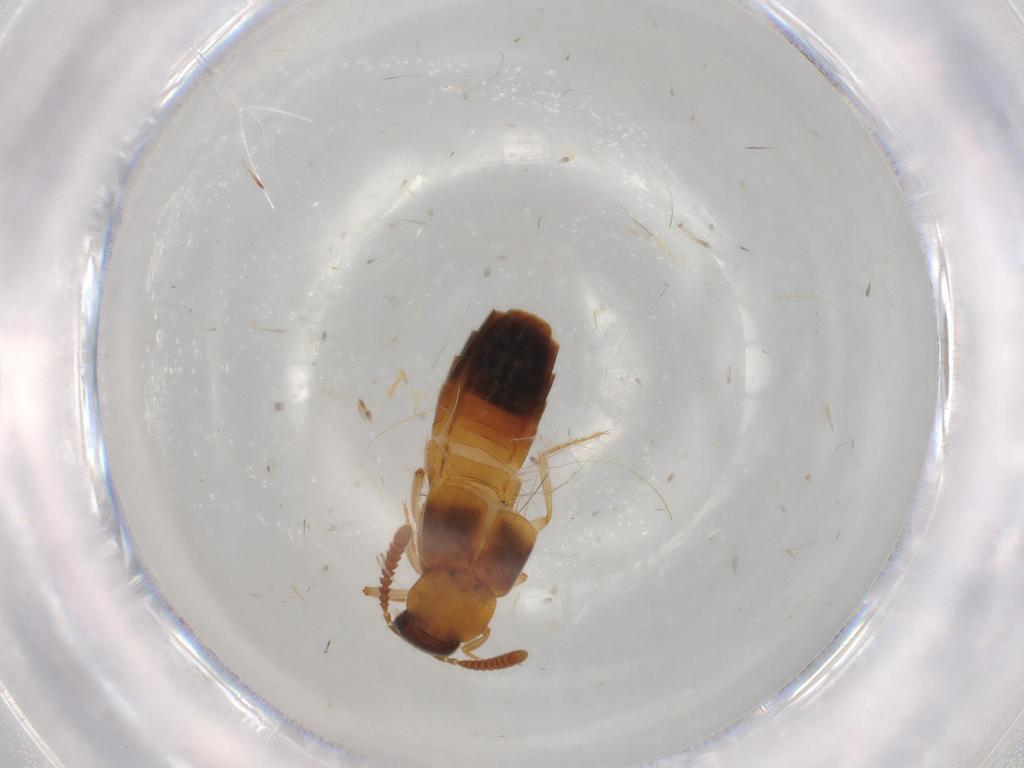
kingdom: Animalia
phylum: Arthropoda
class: Insecta
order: Coleoptera
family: Staphylinidae
